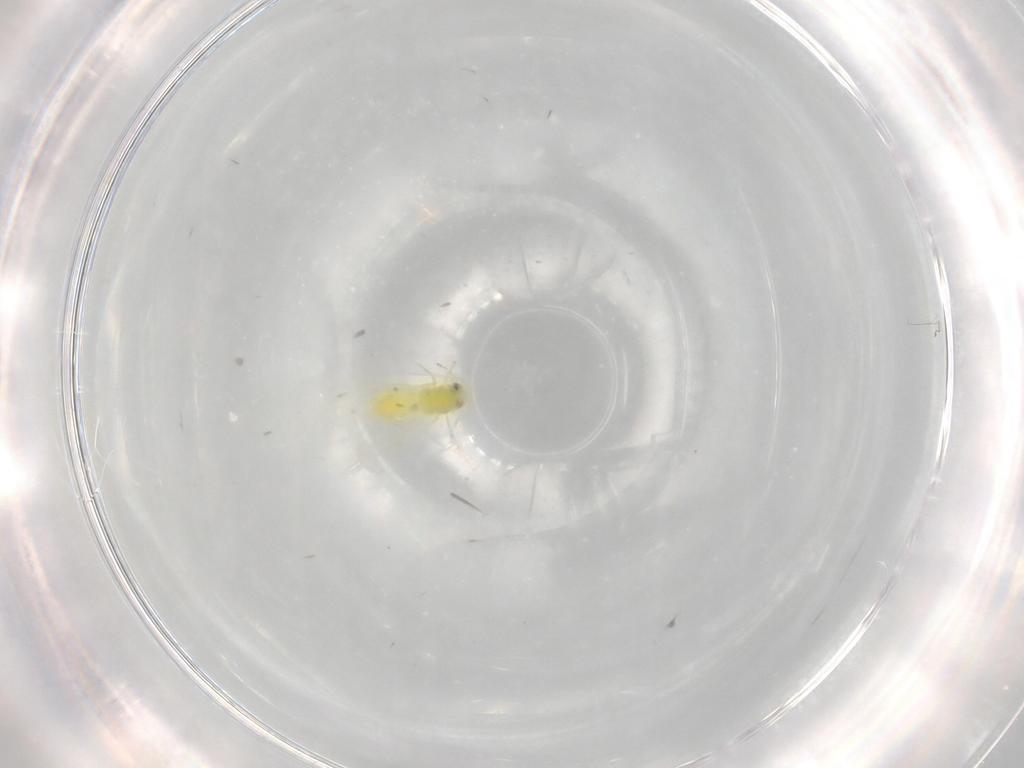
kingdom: Animalia
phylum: Arthropoda
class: Insecta
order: Hemiptera
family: Aleyrodidae
